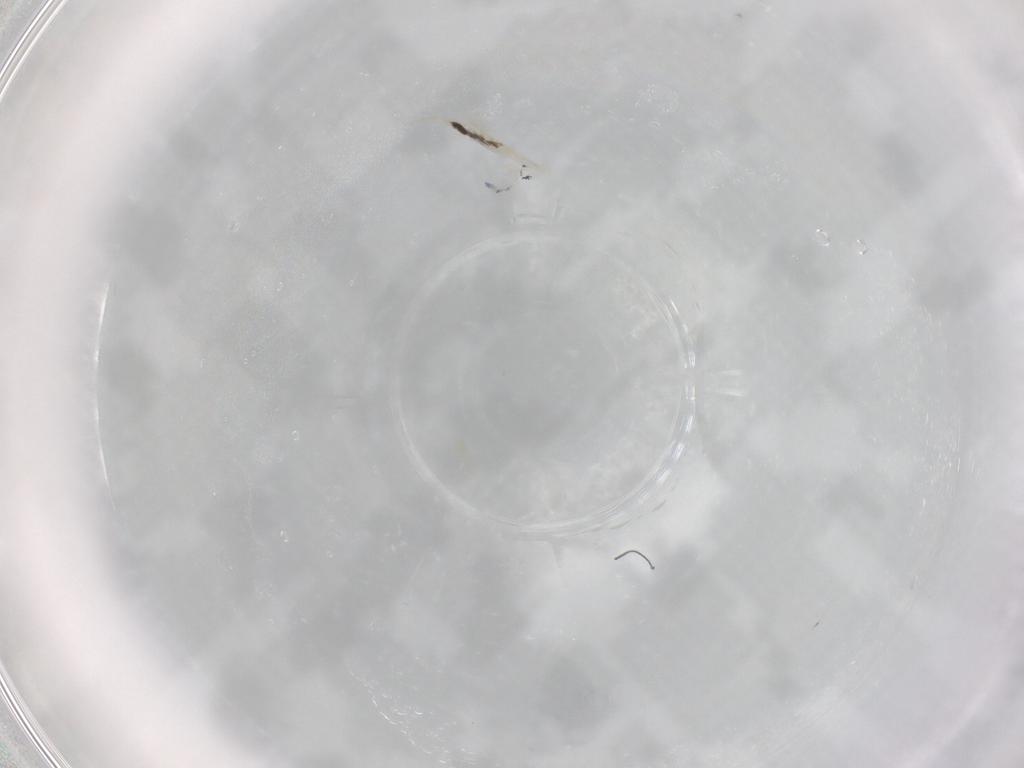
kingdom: Animalia
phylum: Arthropoda
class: Collembola
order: Entomobryomorpha
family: Entomobryidae
